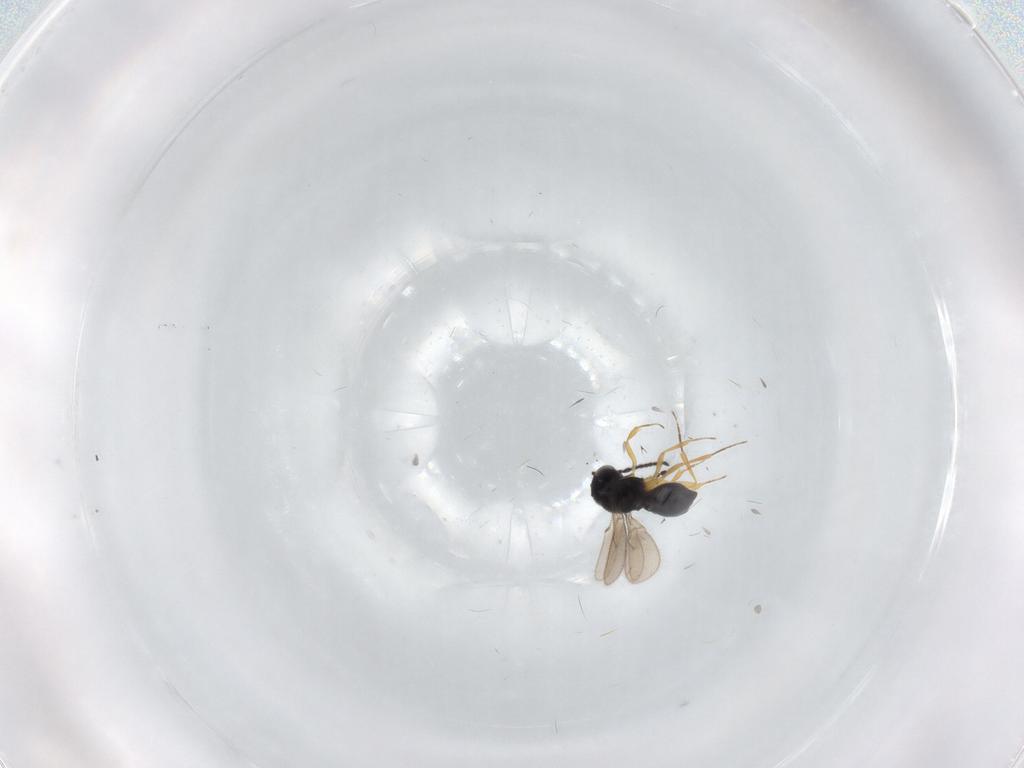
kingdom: Animalia
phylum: Arthropoda
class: Insecta
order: Hymenoptera
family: Scelionidae
